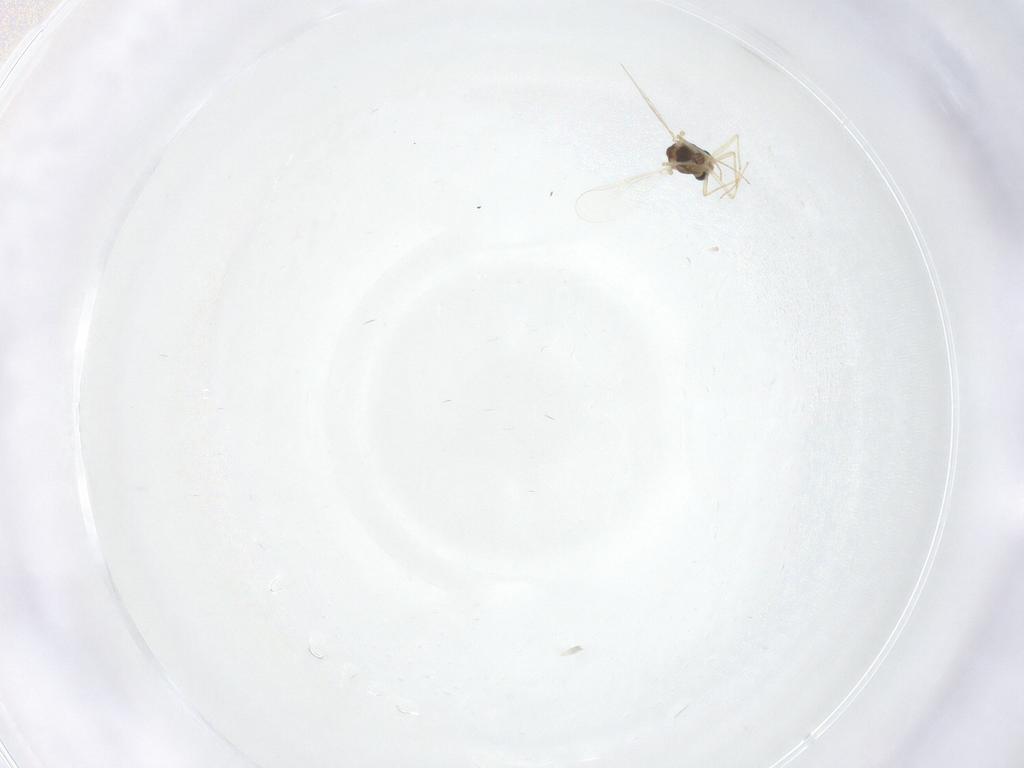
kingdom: Animalia
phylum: Arthropoda
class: Insecta
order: Diptera
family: Chironomidae
